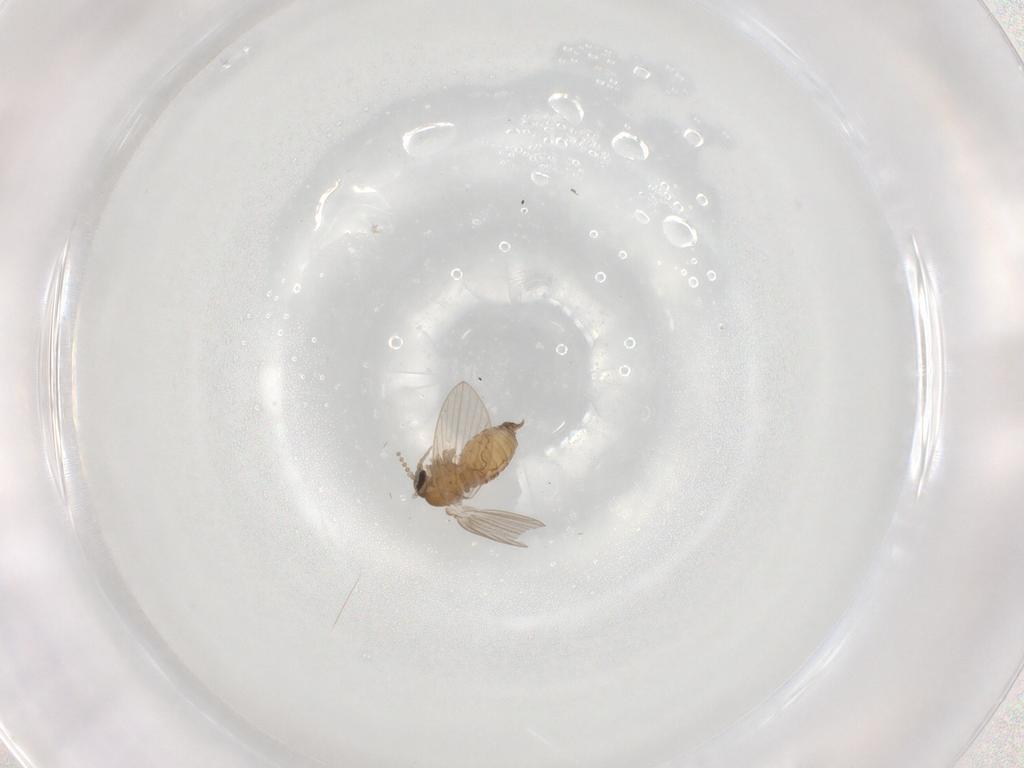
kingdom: Animalia
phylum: Arthropoda
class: Insecta
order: Diptera
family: Psychodidae
